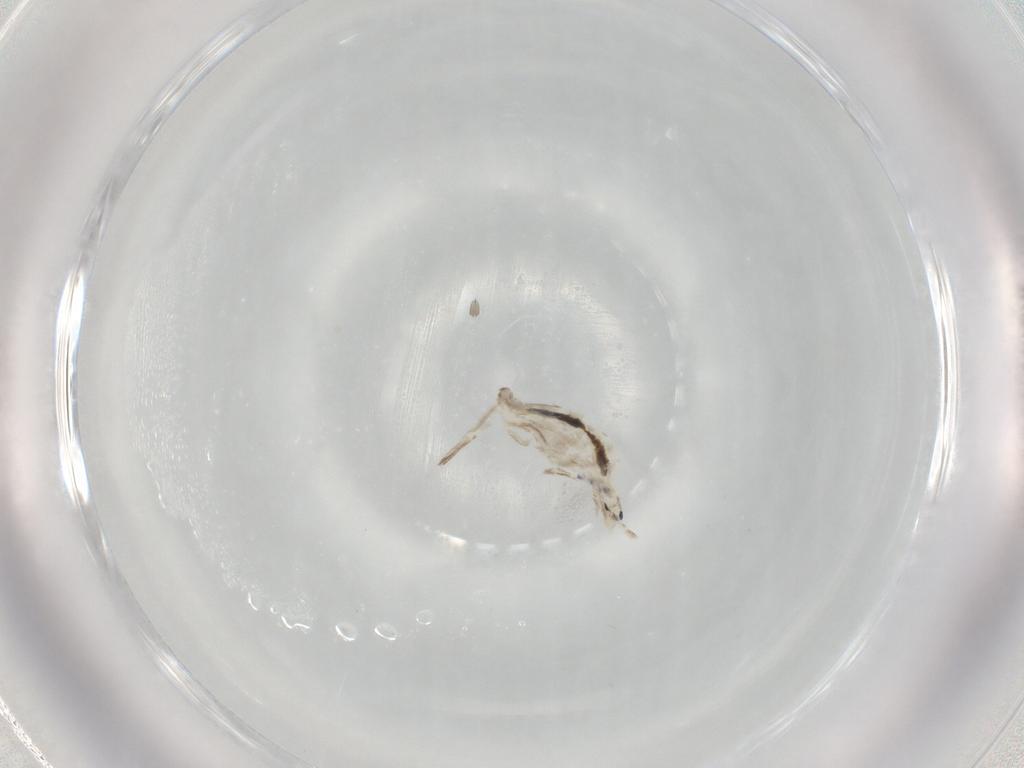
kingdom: Animalia
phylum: Arthropoda
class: Collembola
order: Entomobryomorpha
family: Entomobryidae
